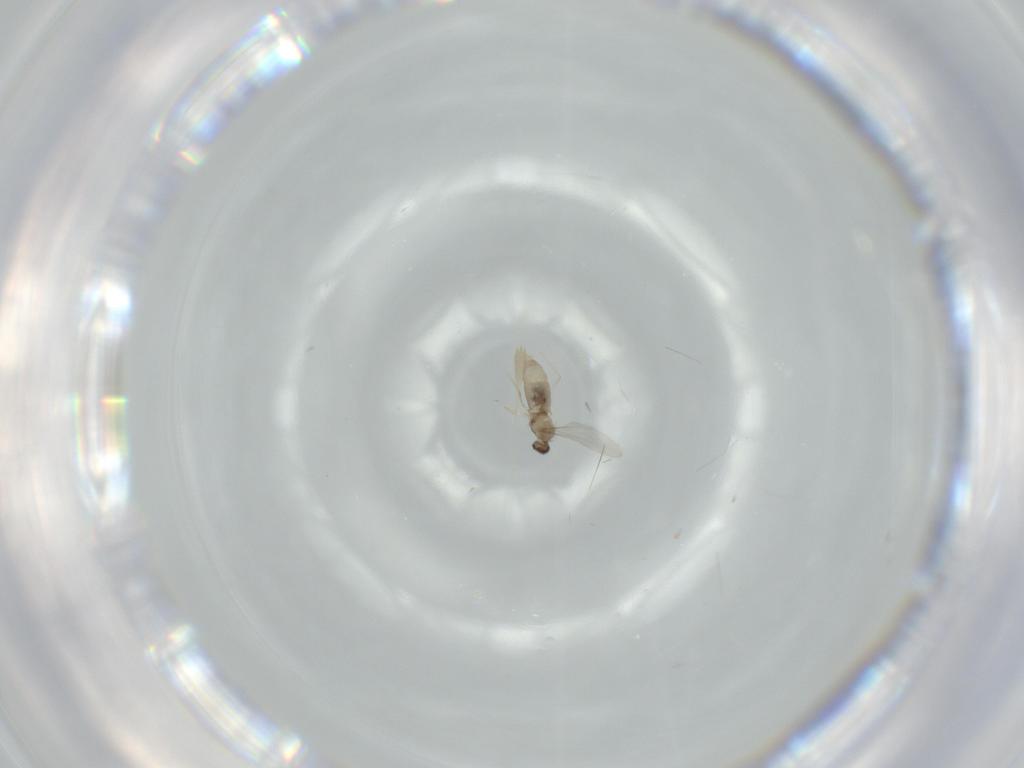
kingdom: Animalia
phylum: Arthropoda
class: Insecta
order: Diptera
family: Cecidomyiidae
